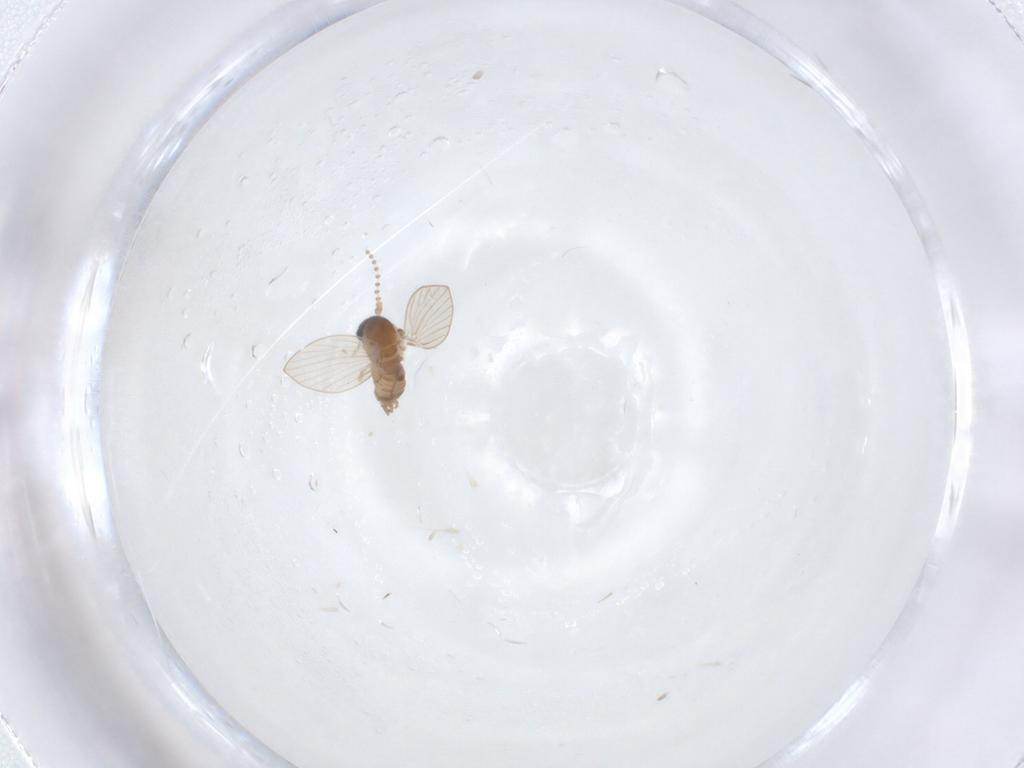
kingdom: Animalia
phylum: Arthropoda
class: Insecta
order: Diptera
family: Psychodidae
